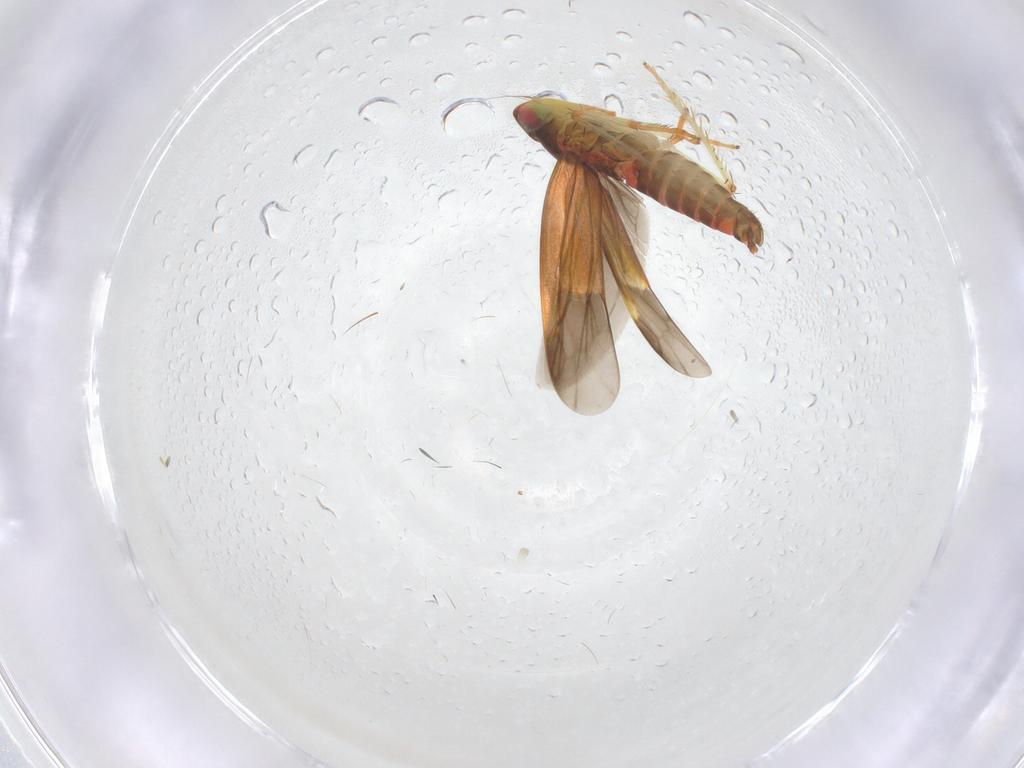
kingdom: Animalia
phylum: Arthropoda
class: Insecta
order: Hemiptera
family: Cicadellidae
